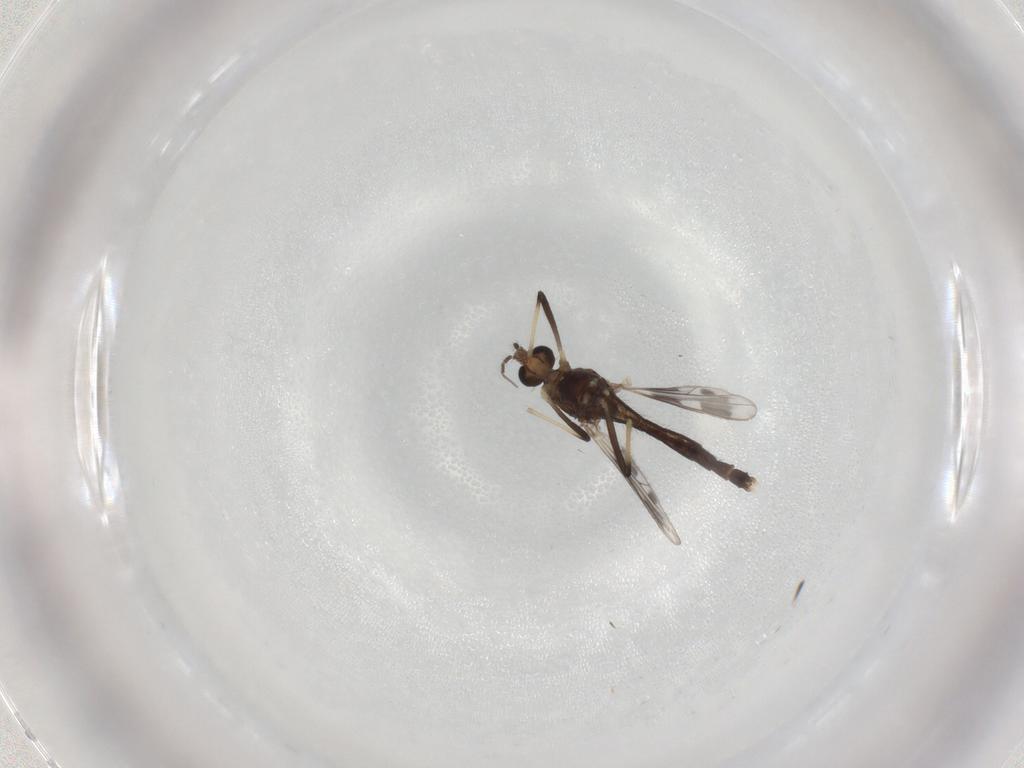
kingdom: Animalia
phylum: Arthropoda
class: Insecta
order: Diptera
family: Chironomidae
